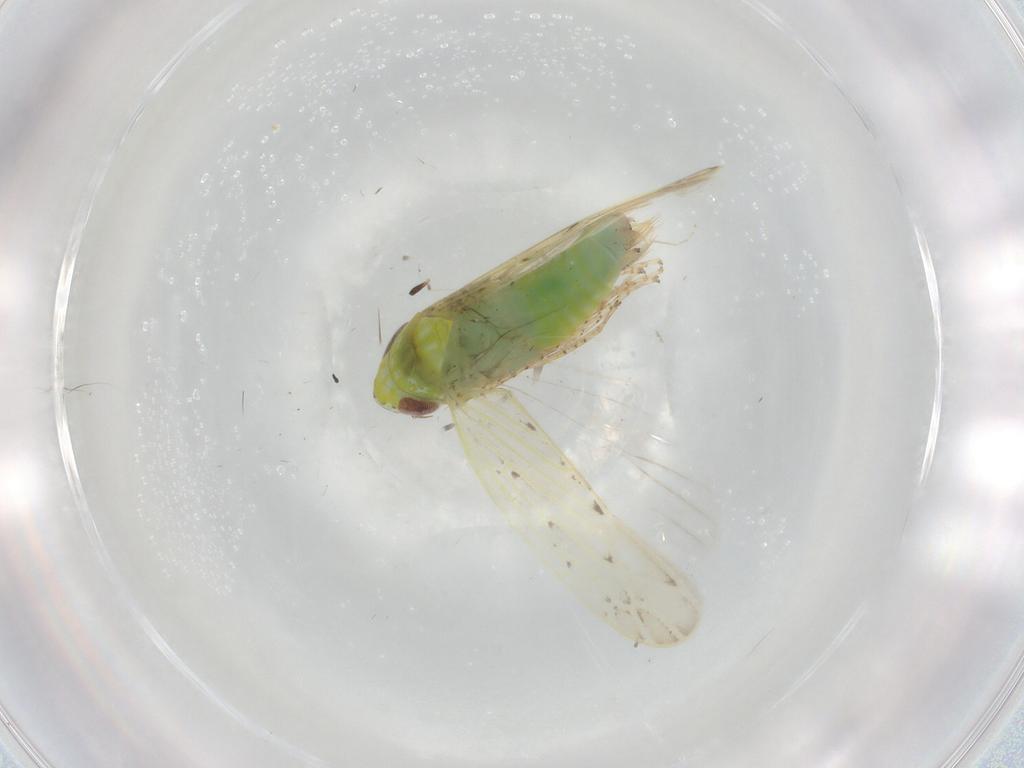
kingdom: Animalia
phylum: Arthropoda
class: Insecta
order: Hemiptera
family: Cicadellidae
